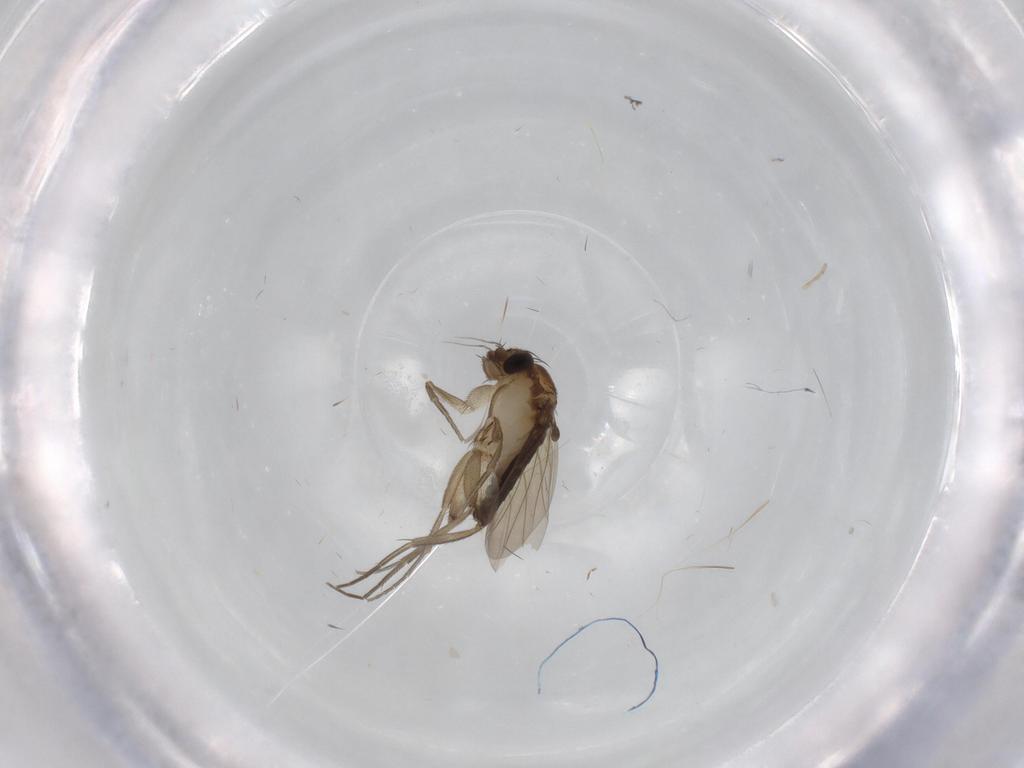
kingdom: Animalia
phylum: Arthropoda
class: Insecta
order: Diptera
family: Phoridae
